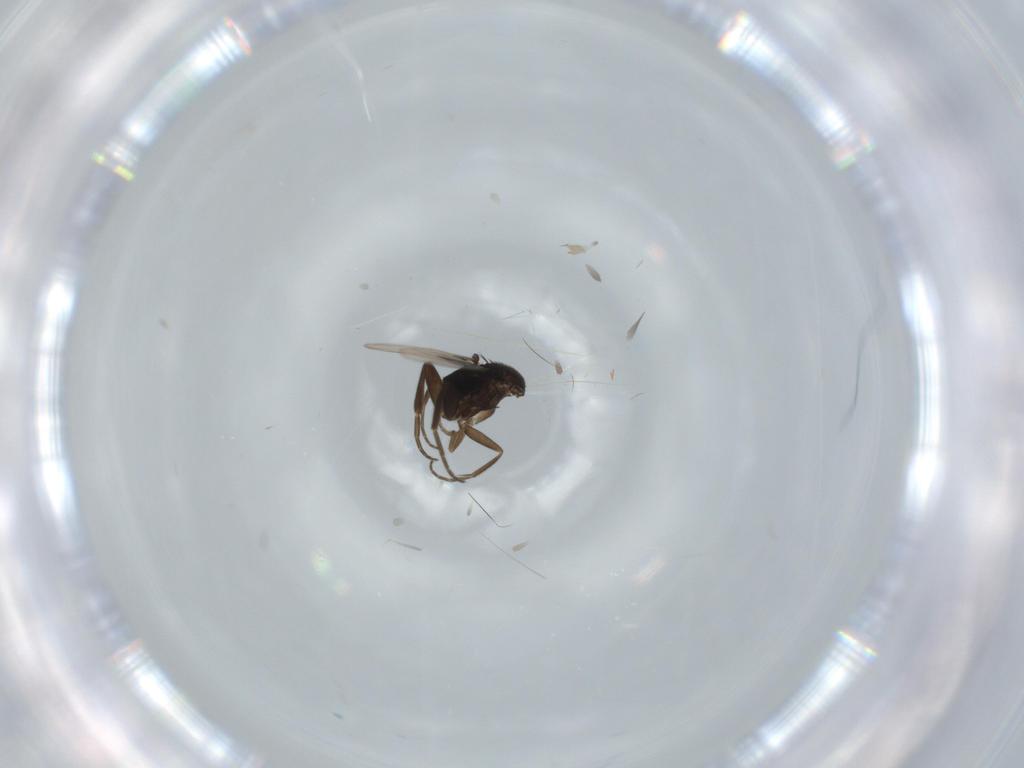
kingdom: Animalia
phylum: Arthropoda
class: Insecta
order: Diptera
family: Phoridae
